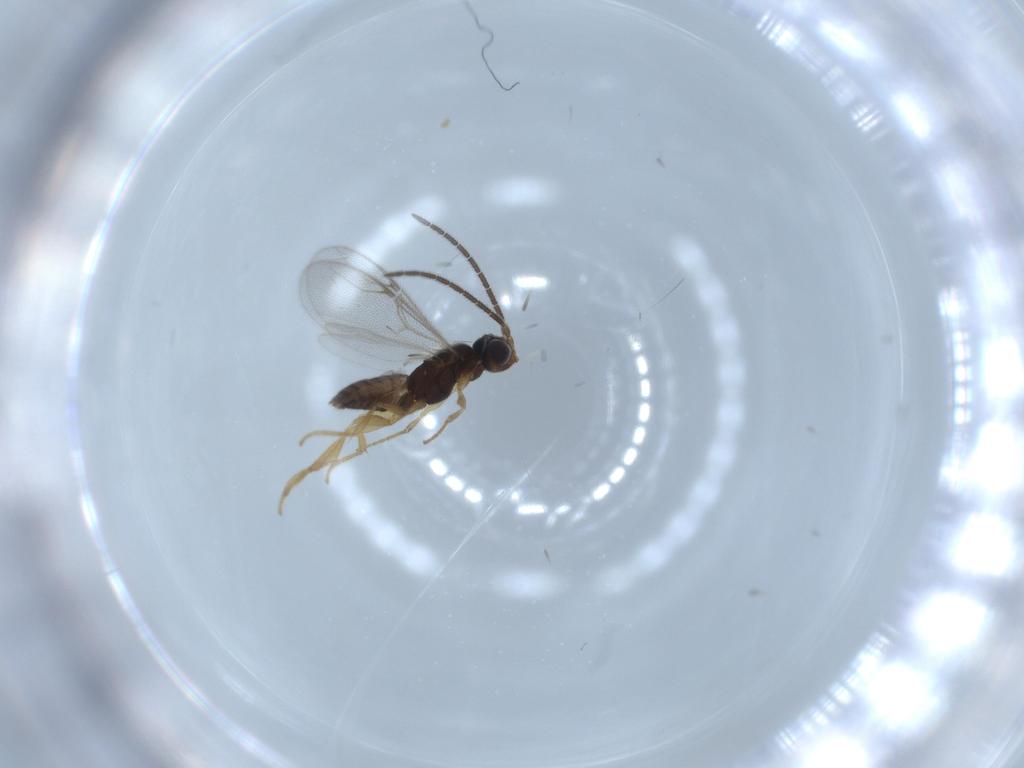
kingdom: Animalia
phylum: Arthropoda
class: Insecta
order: Hymenoptera
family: Dryinidae
